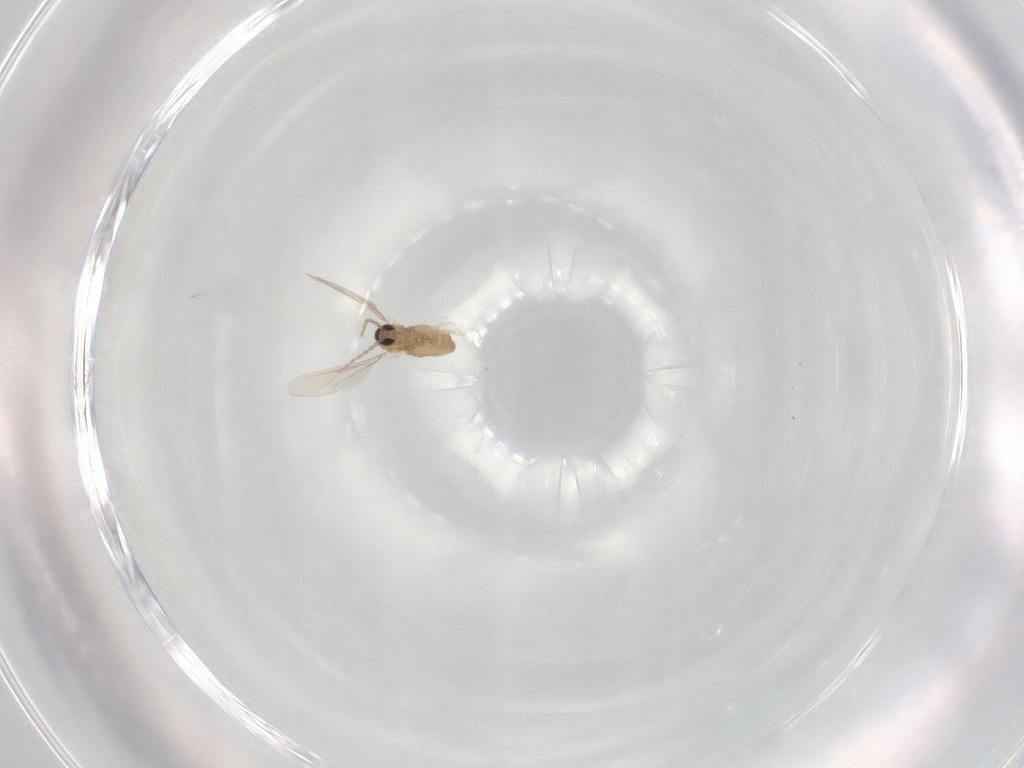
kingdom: Animalia
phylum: Arthropoda
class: Insecta
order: Diptera
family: Cecidomyiidae
